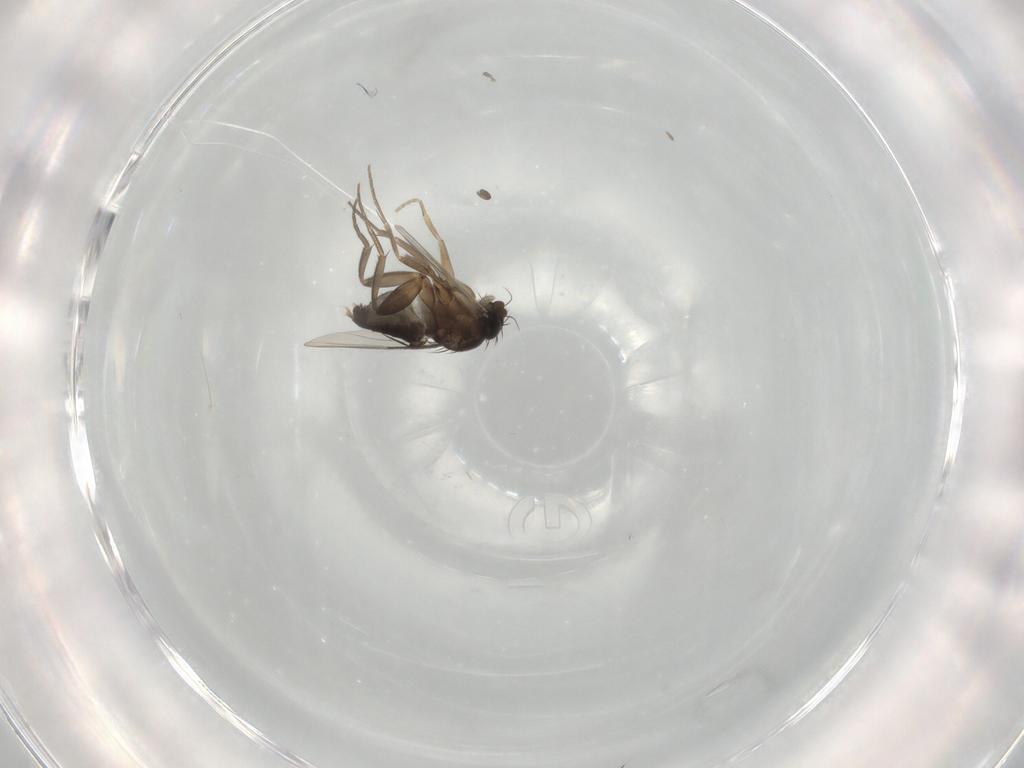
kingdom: Animalia
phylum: Arthropoda
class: Insecta
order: Diptera
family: Phoridae
